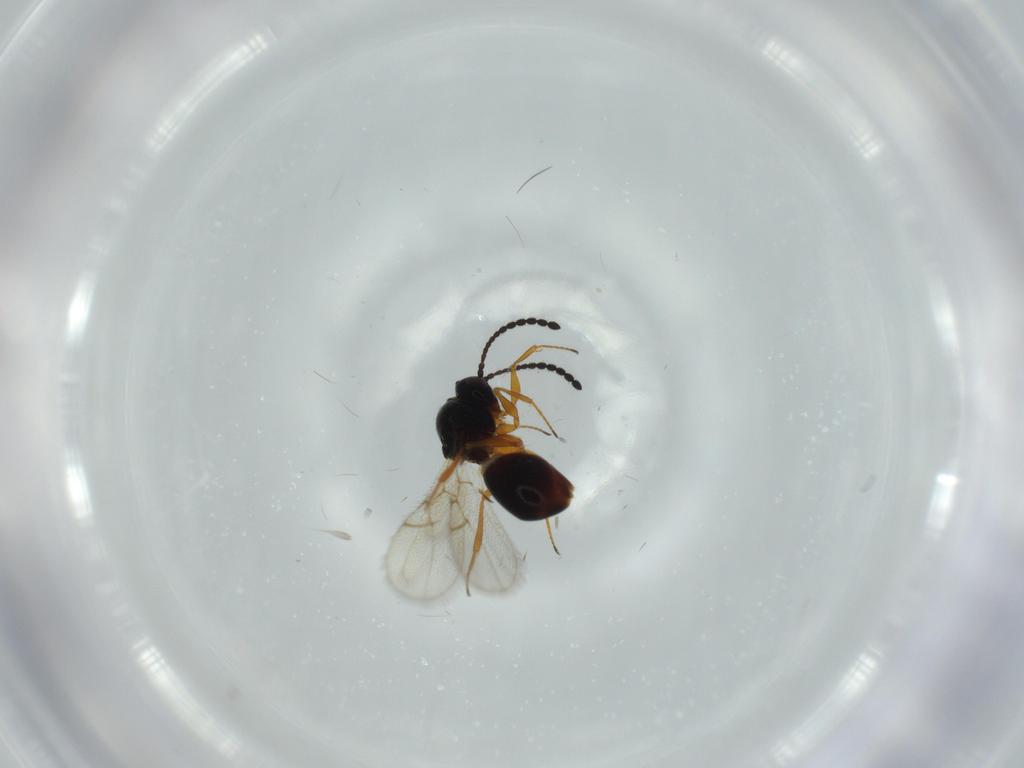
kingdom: Animalia
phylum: Arthropoda
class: Insecta
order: Hymenoptera
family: Figitidae
